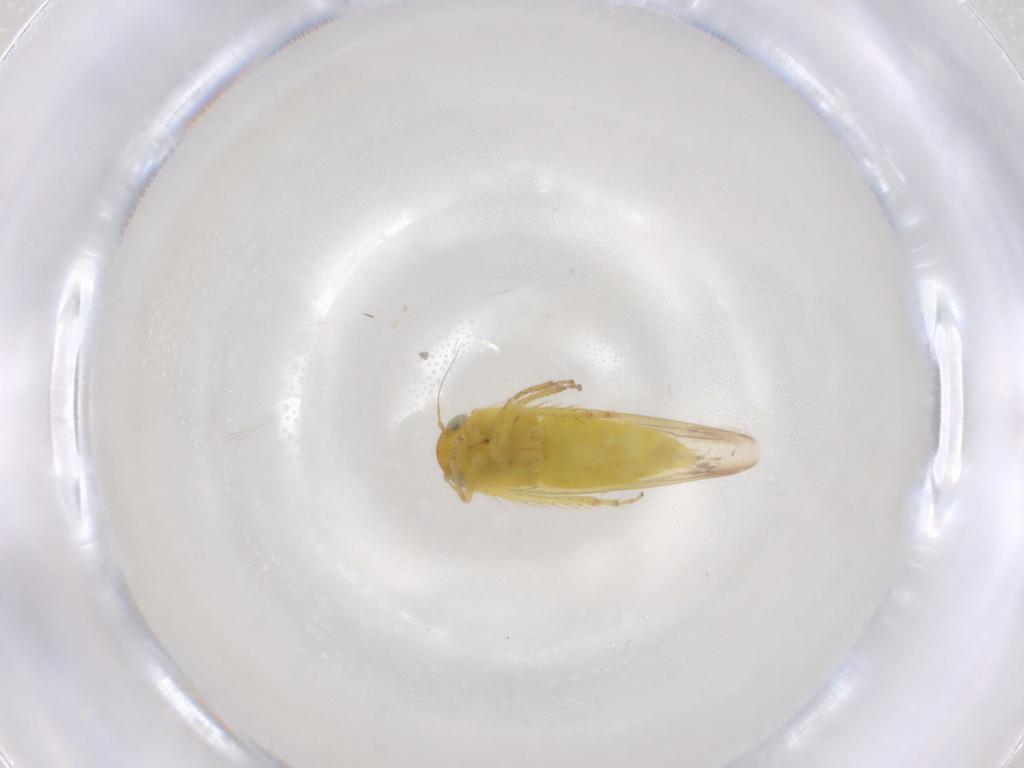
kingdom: Animalia
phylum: Arthropoda
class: Insecta
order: Hemiptera
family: Cicadellidae
